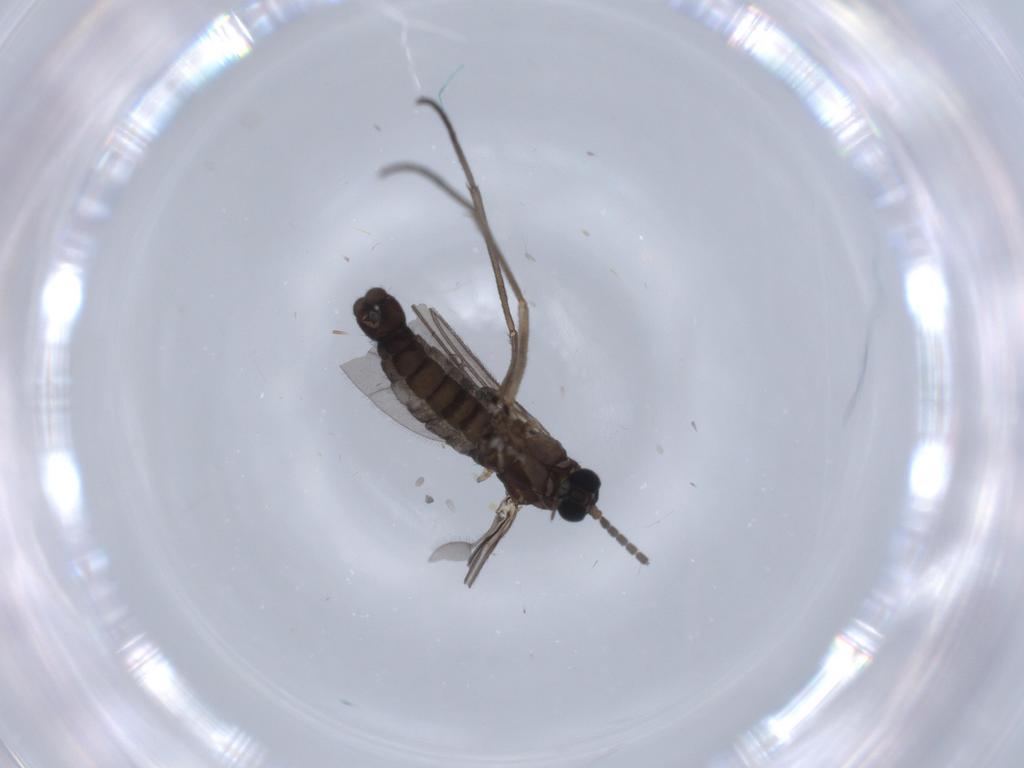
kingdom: Animalia
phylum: Arthropoda
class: Insecta
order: Diptera
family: Sciaridae
